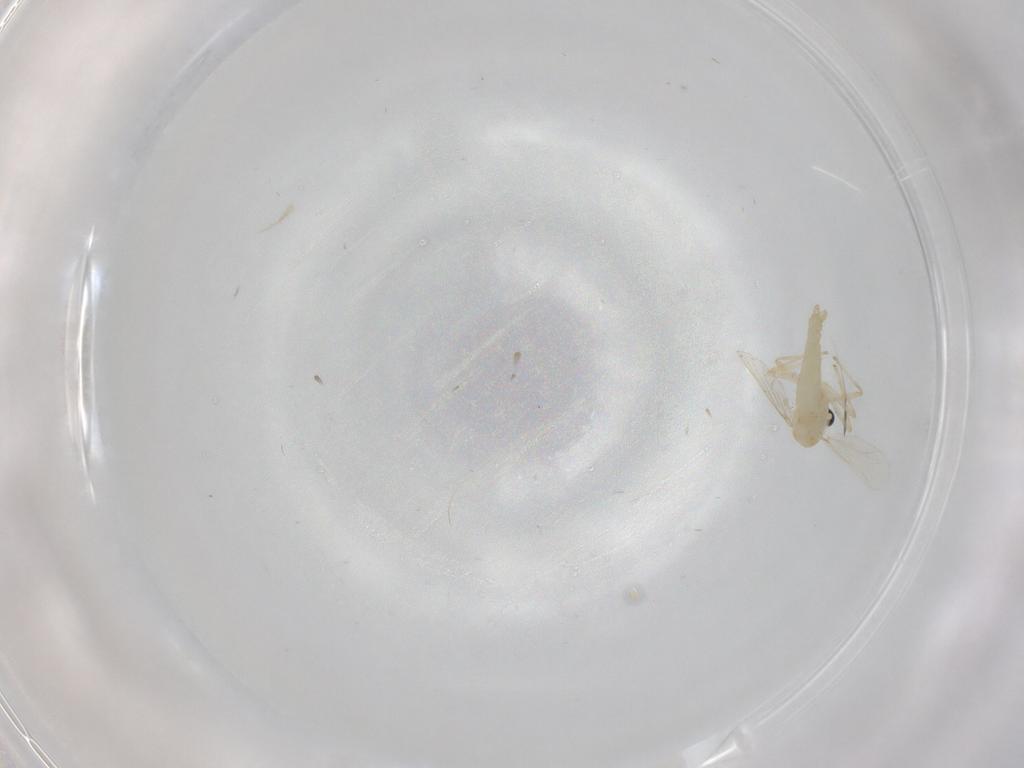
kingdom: Animalia
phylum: Arthropoda
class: Insecta
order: Diptera
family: Chironomidae
